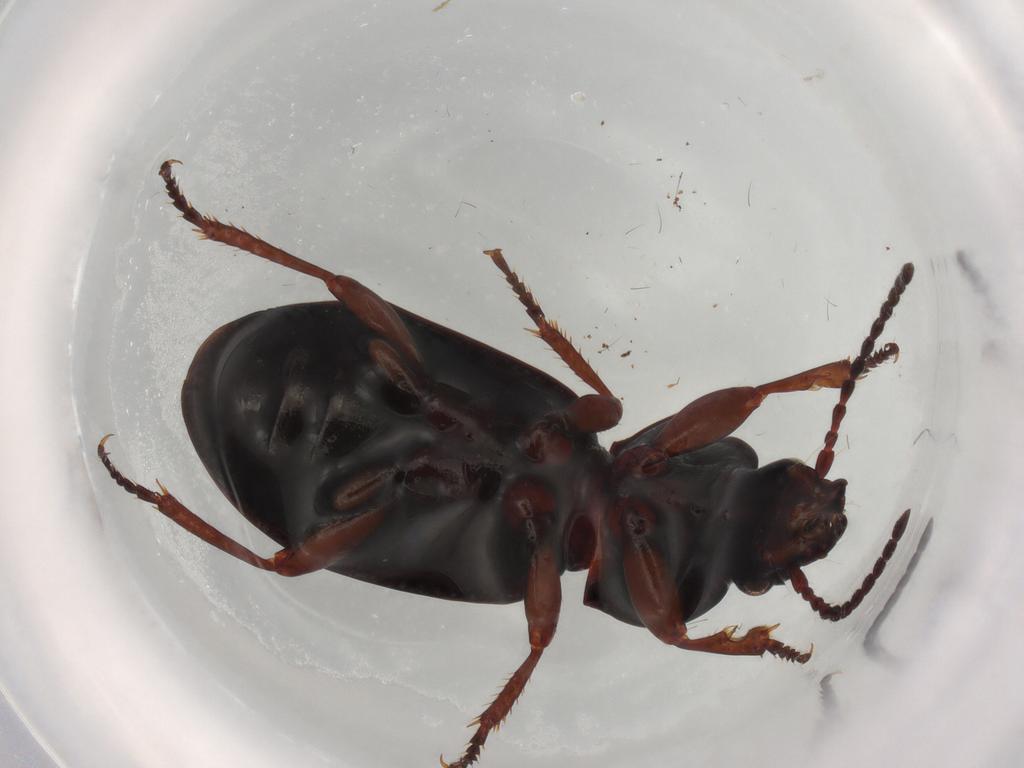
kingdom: Animalia
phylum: Arthropoda
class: Insecta
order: Coleoptera
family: Carabidae
